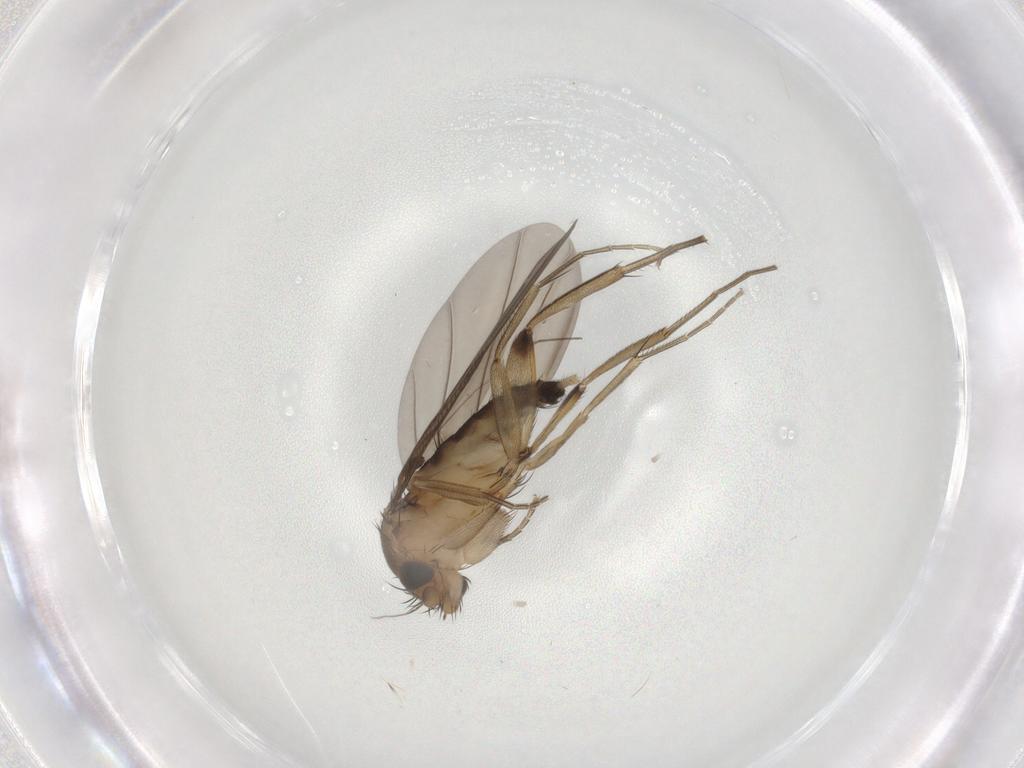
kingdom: Animalia
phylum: Arthropoda
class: Insecta
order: Diptera
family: Phoridae
